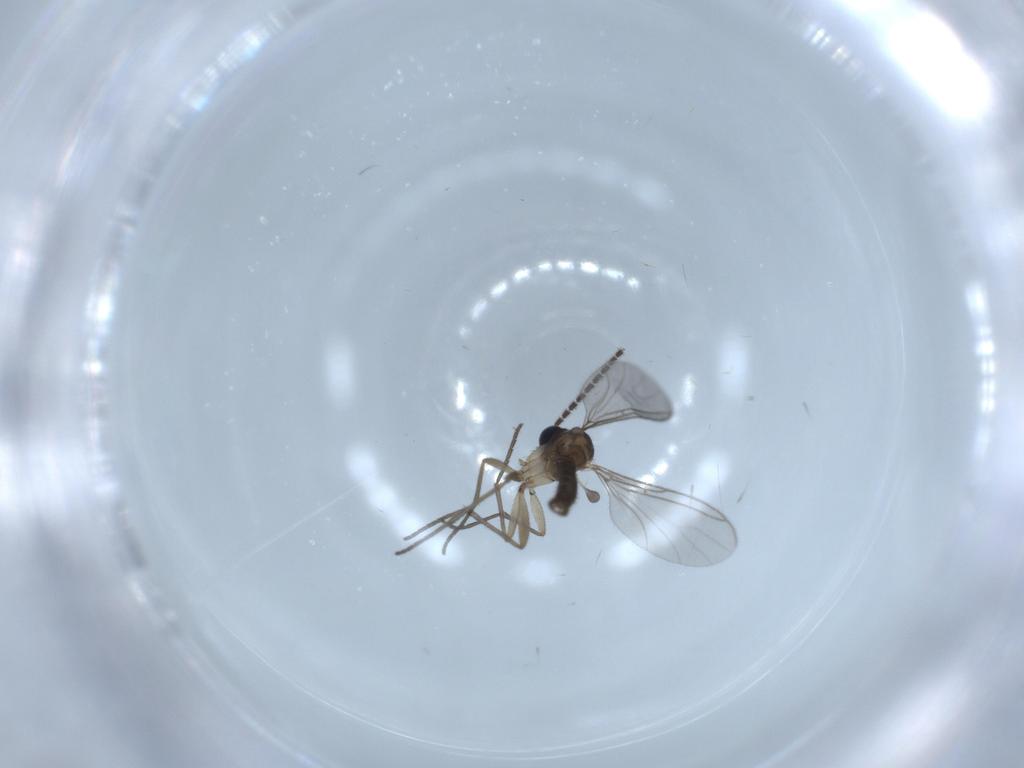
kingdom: Animalia
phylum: Arthropoda
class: Insecta
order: Diptera
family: Sciaridae
